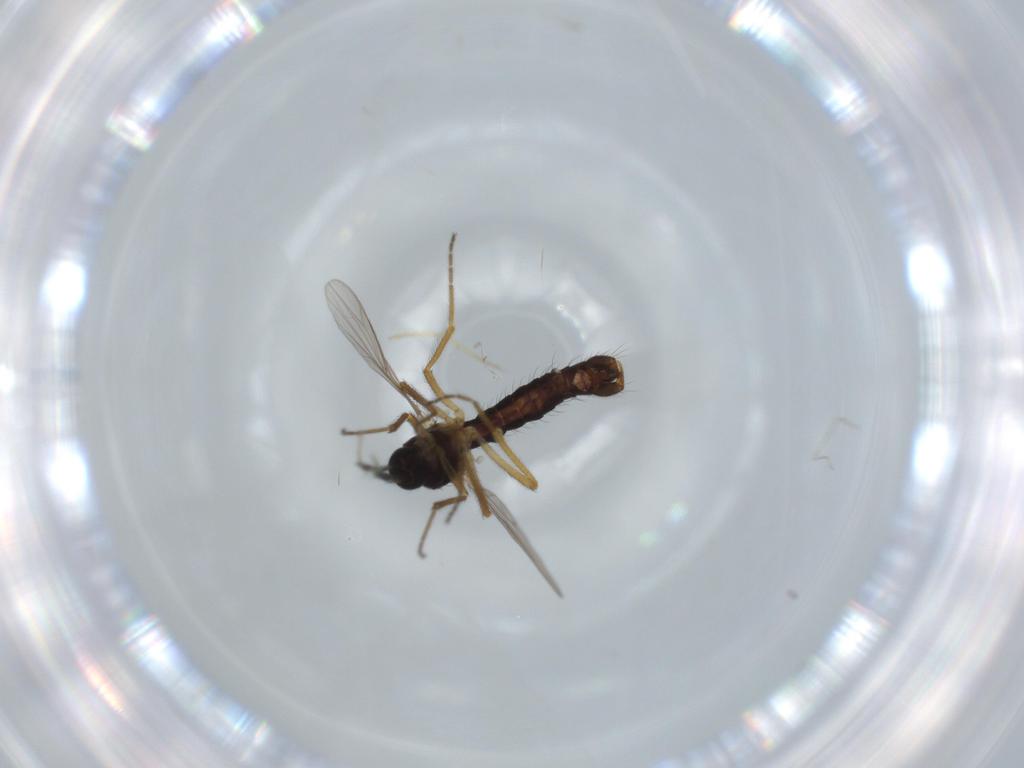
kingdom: Animalia
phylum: Arthropoda
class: Insecta
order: Diptera
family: Ceratopogonidae
